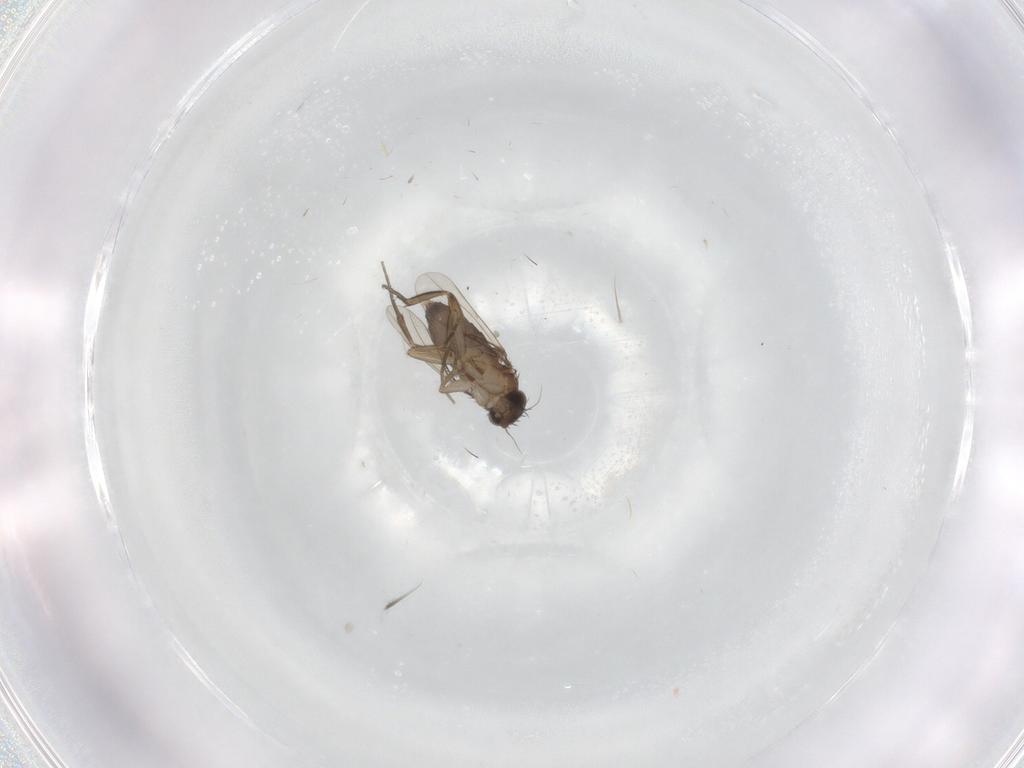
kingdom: Animalia
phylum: Arthropoda
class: Insecta
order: Diptera
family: Phoridae
